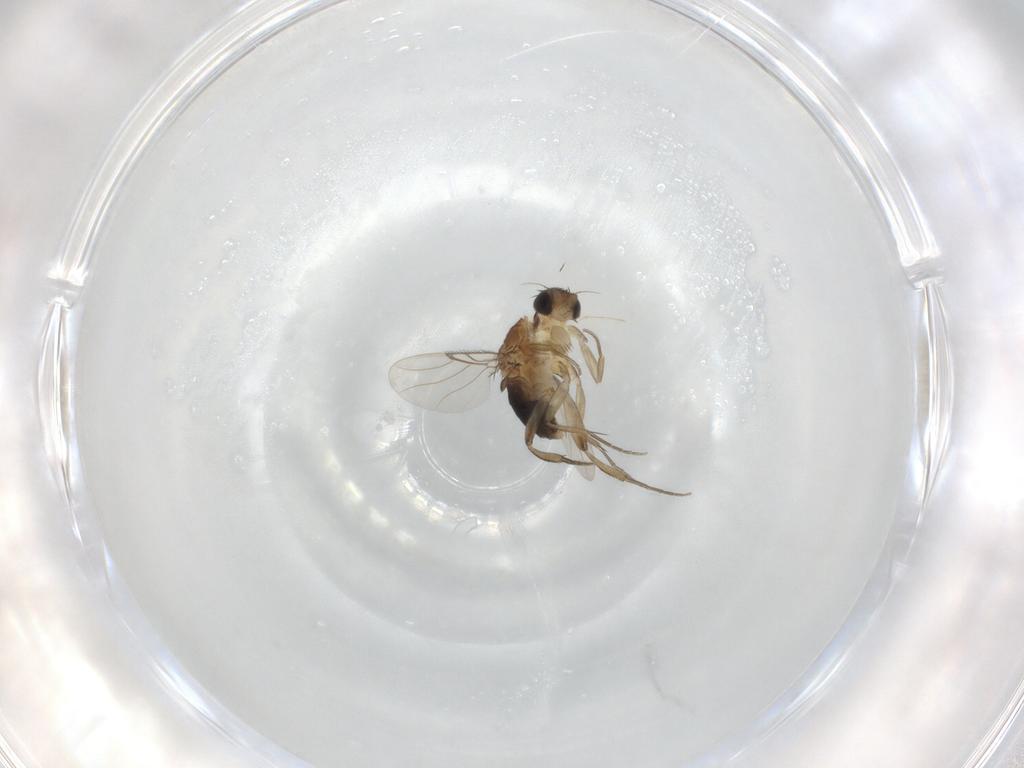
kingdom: Animalia
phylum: Arthropoda
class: Insecta
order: Diptera
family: Phoridae
